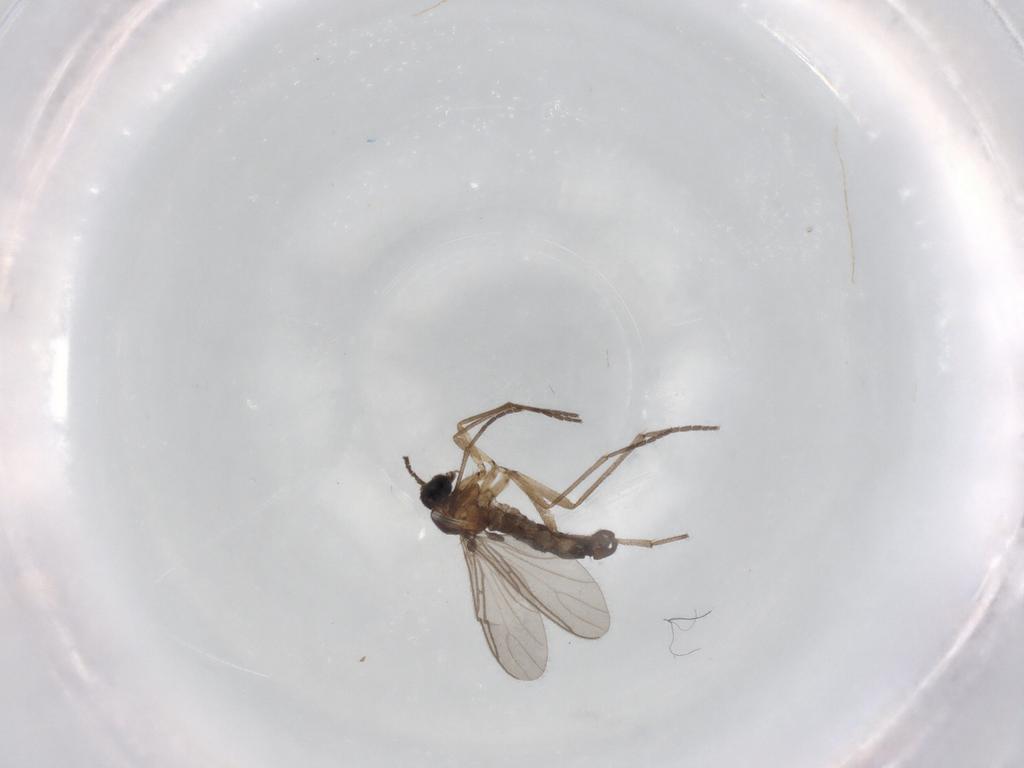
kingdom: Animalia
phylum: Arthropoda
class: Insecta
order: Diptera
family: Sciaridae
